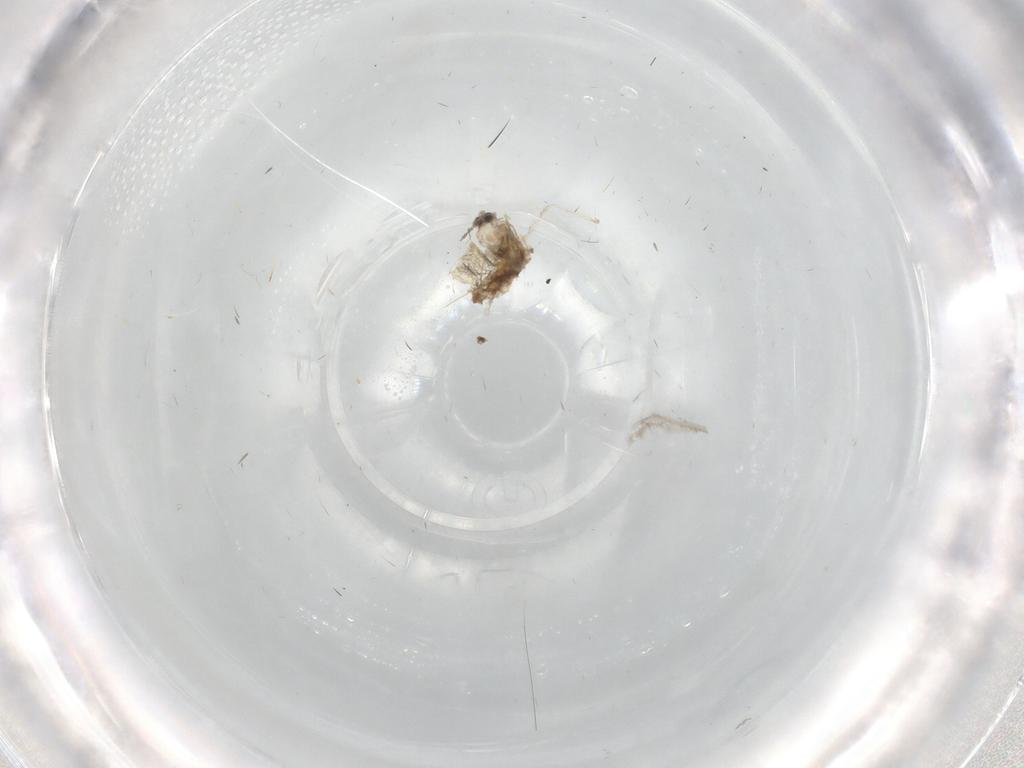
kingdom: Animalia
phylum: Arthropoda
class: Insecta
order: Diptera
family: Cecidomyiidae
